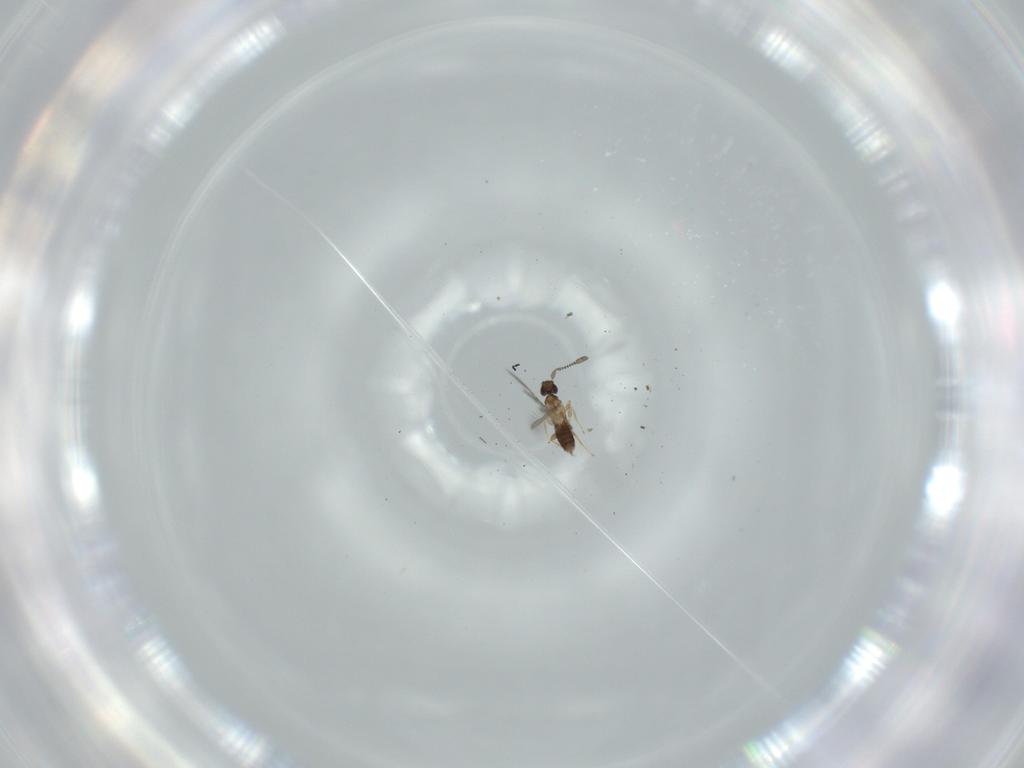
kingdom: Animalia
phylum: Arthropoda
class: Insecta
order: Hymenoptera
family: Mymaridae
